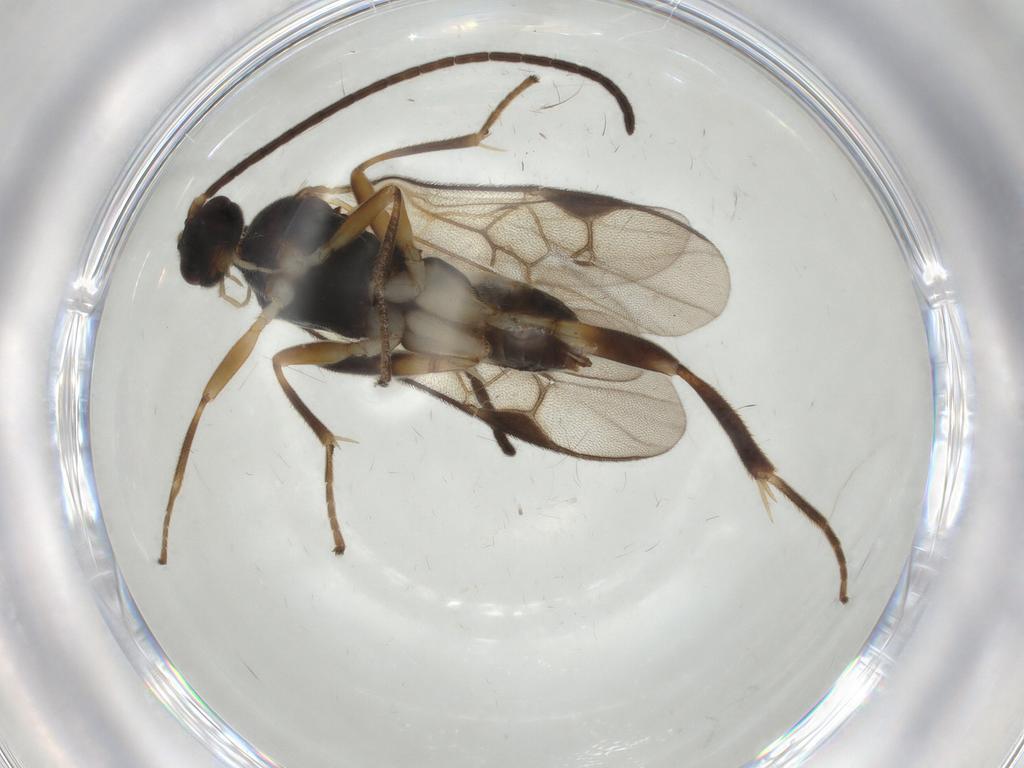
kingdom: Animalia
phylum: Arthropoda
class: Insecta
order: Hymenoptera
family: Braconidae
